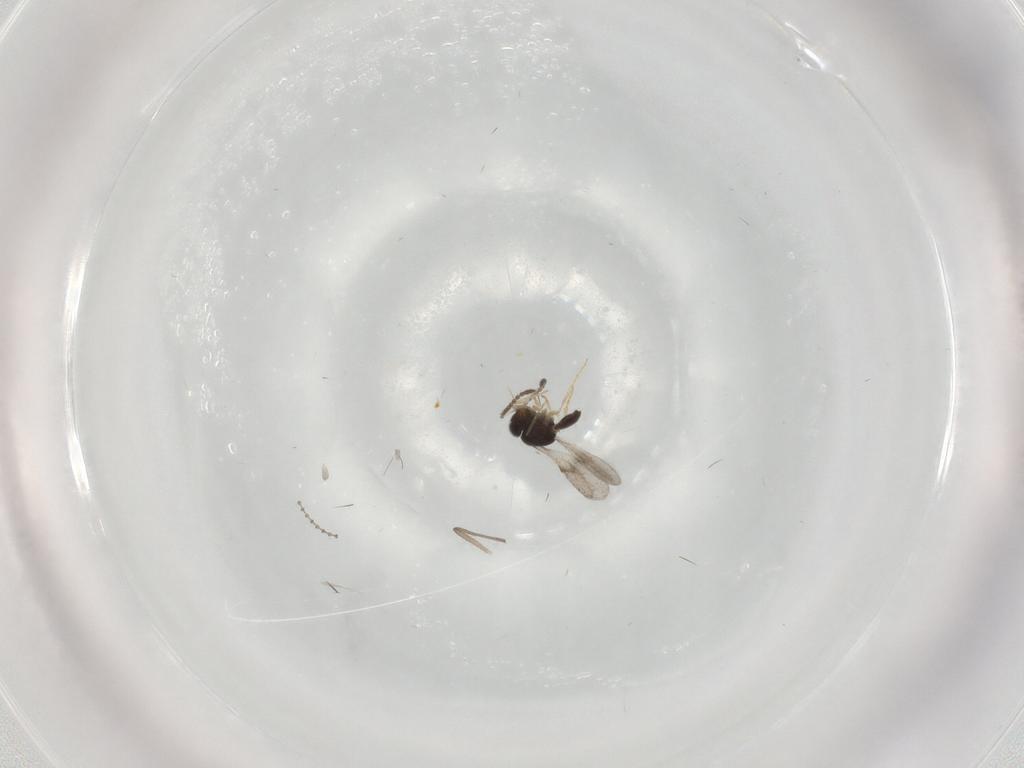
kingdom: Animalia
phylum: Arthropoda
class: Insecta
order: Hymenoptera
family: Scelionidae
